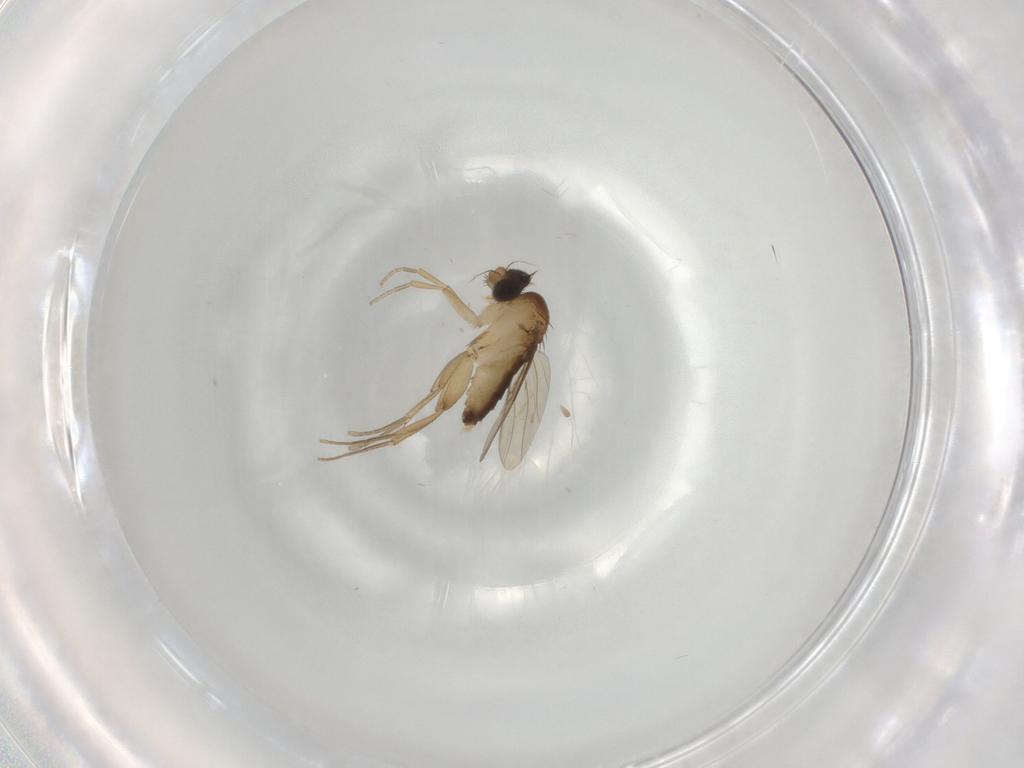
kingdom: Animalia
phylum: Arthropoda
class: Insecta
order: Diptera
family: Phoridae
